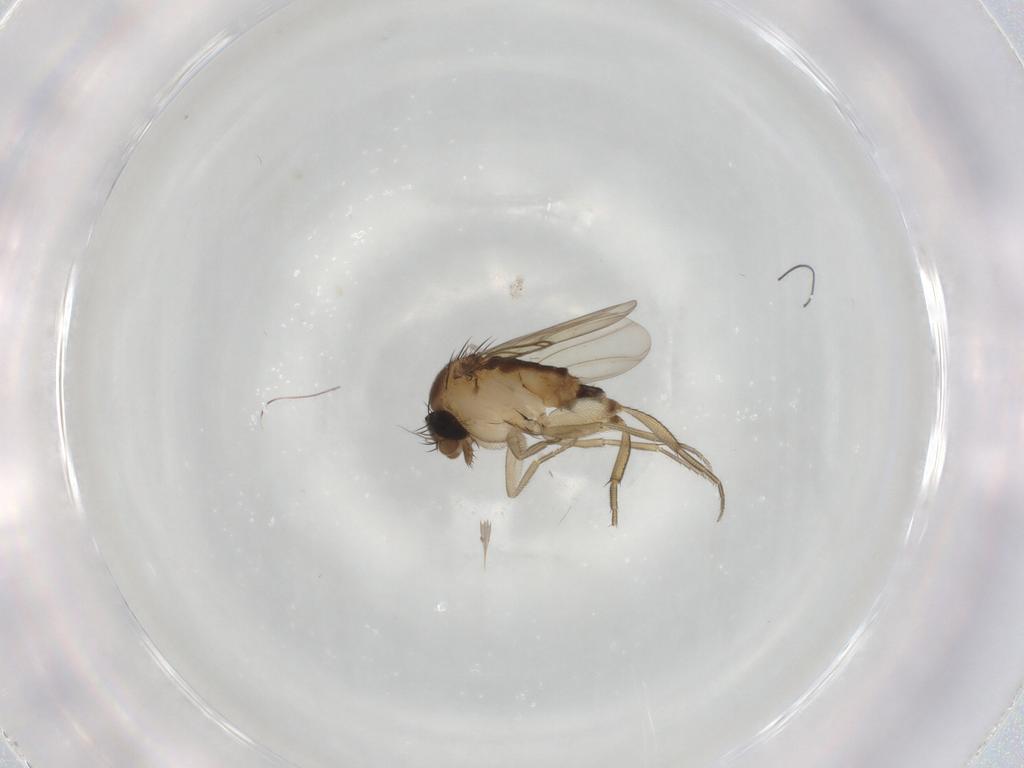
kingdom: Animalia
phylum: Arthropoda
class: Insecta
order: Diptera
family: Phoridae
